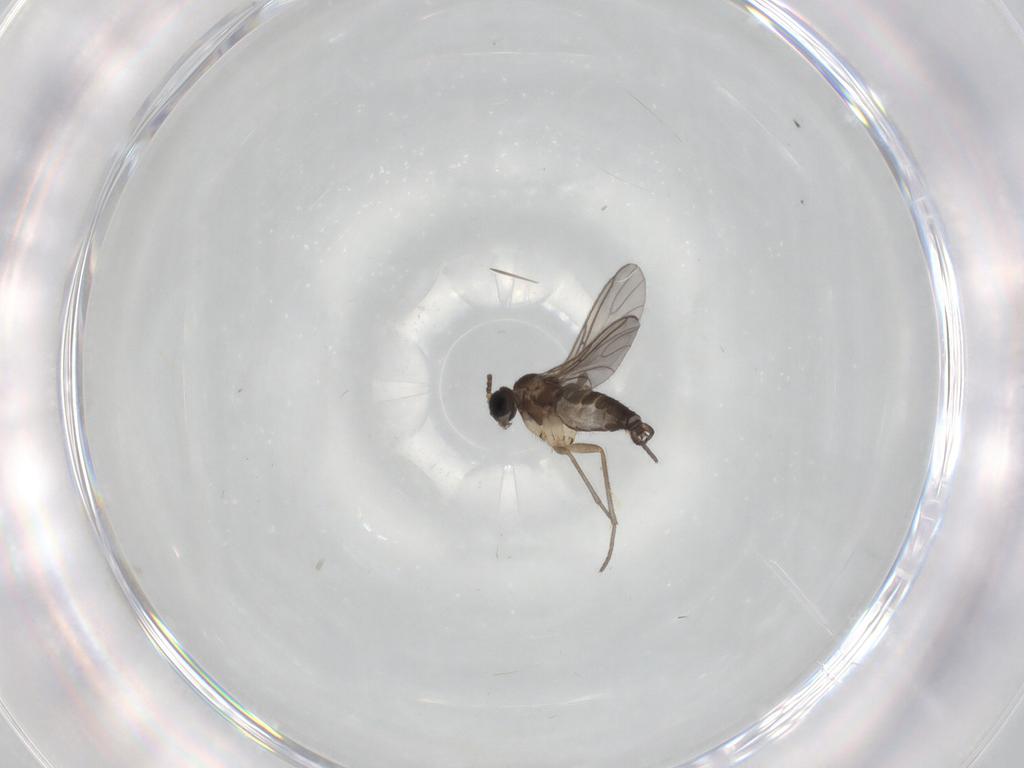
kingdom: Animalia
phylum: Arthropoda
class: Insecta
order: Diptera
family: Sciaridae
